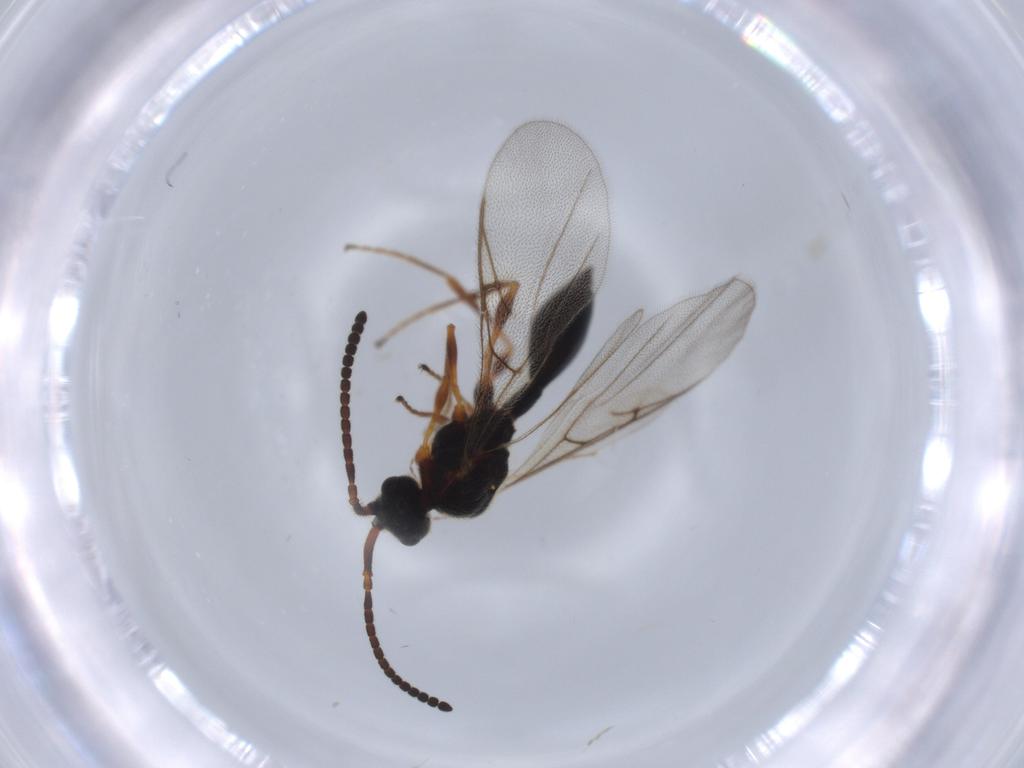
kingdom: Animalia
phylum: Arthropoda
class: Insecta
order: Hymenoptera
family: Diapriidae
